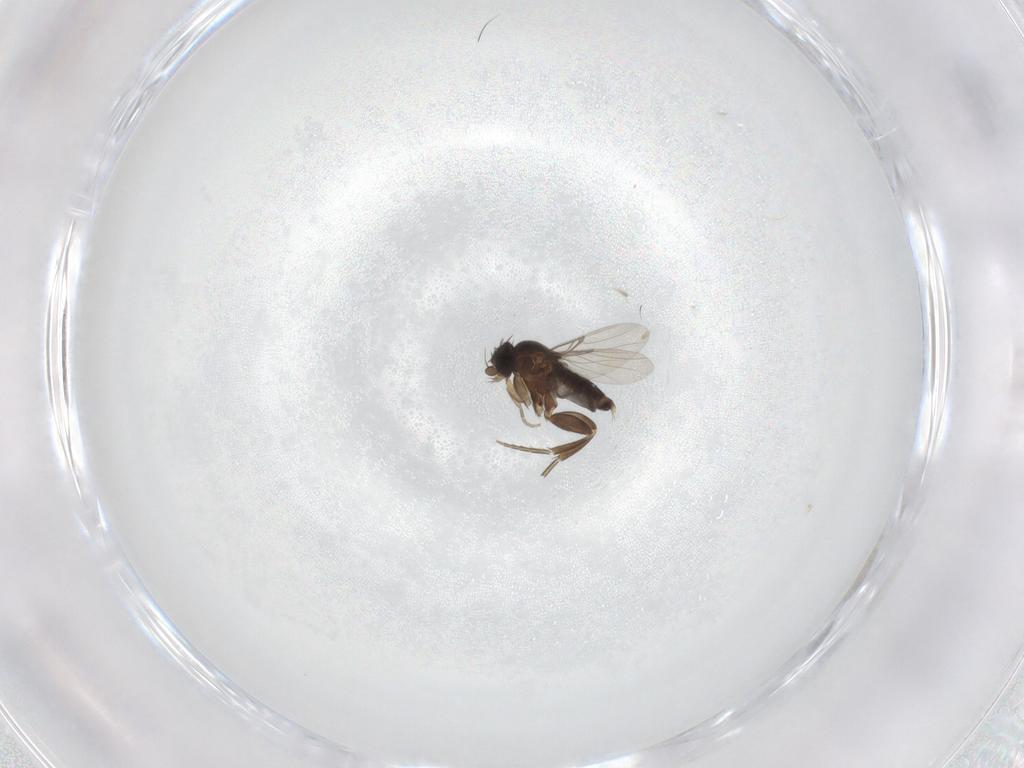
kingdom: Animalia
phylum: Arthropoda
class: Insecta
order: Diptera
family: Phoridae
